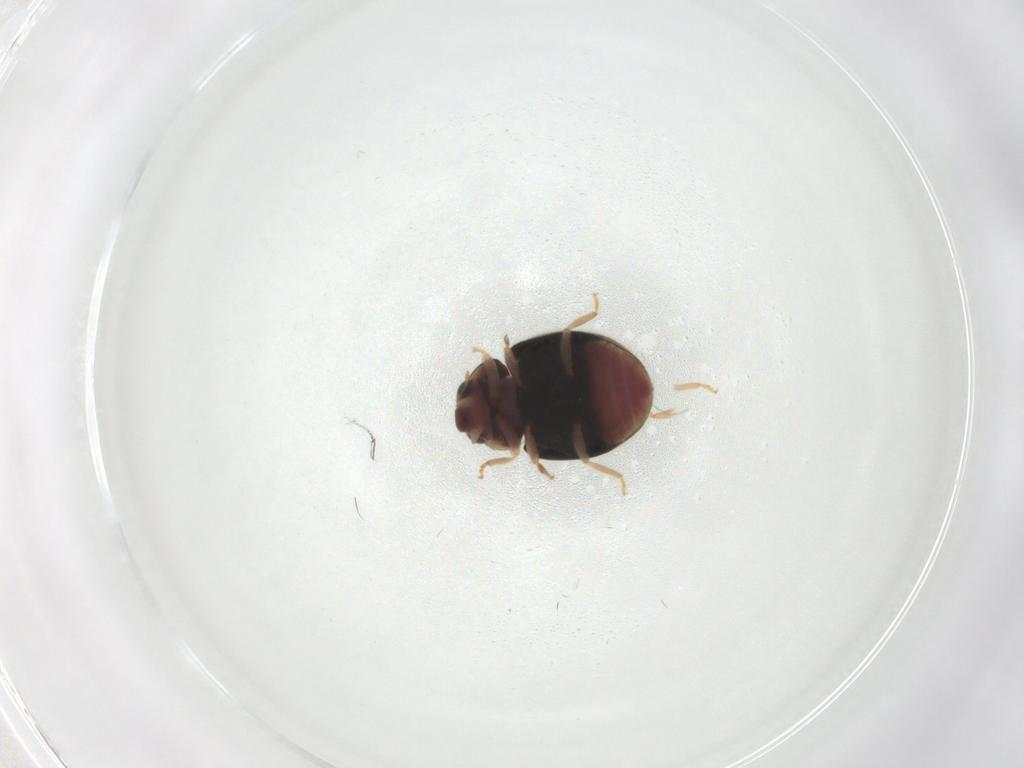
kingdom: Animalia
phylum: Arthropoda
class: Insecta
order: Coleoptera
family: Coccinellidae
